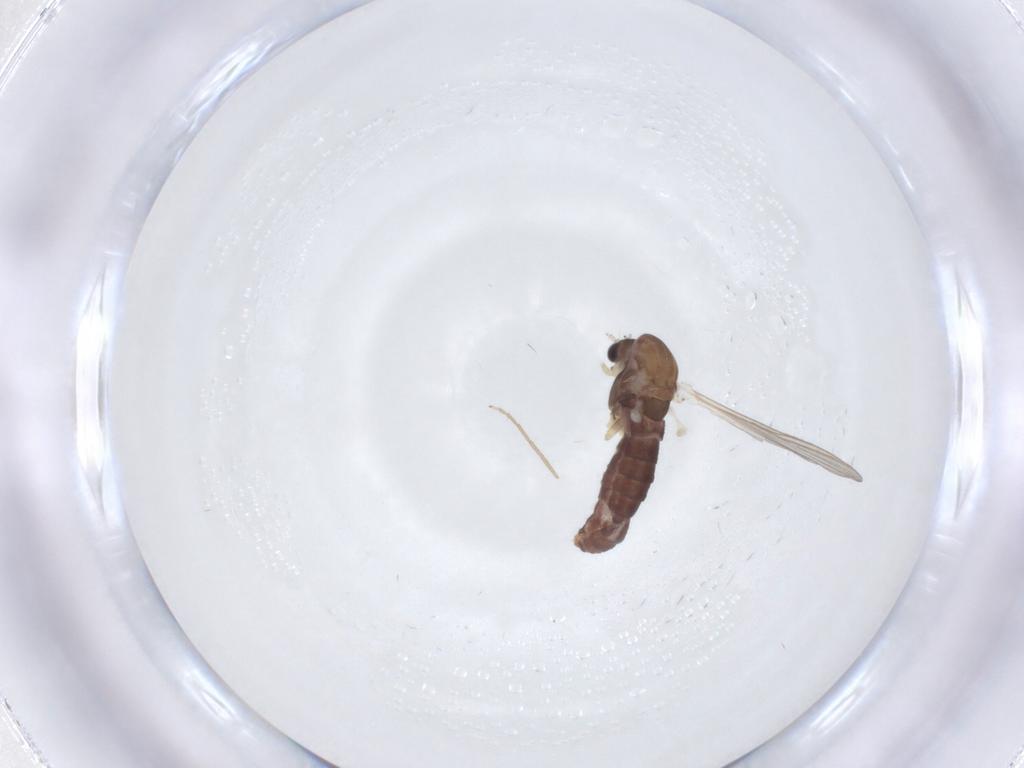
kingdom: Animalia
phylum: Arthropoda
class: Insecta
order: Diptera
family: Chironomidae
